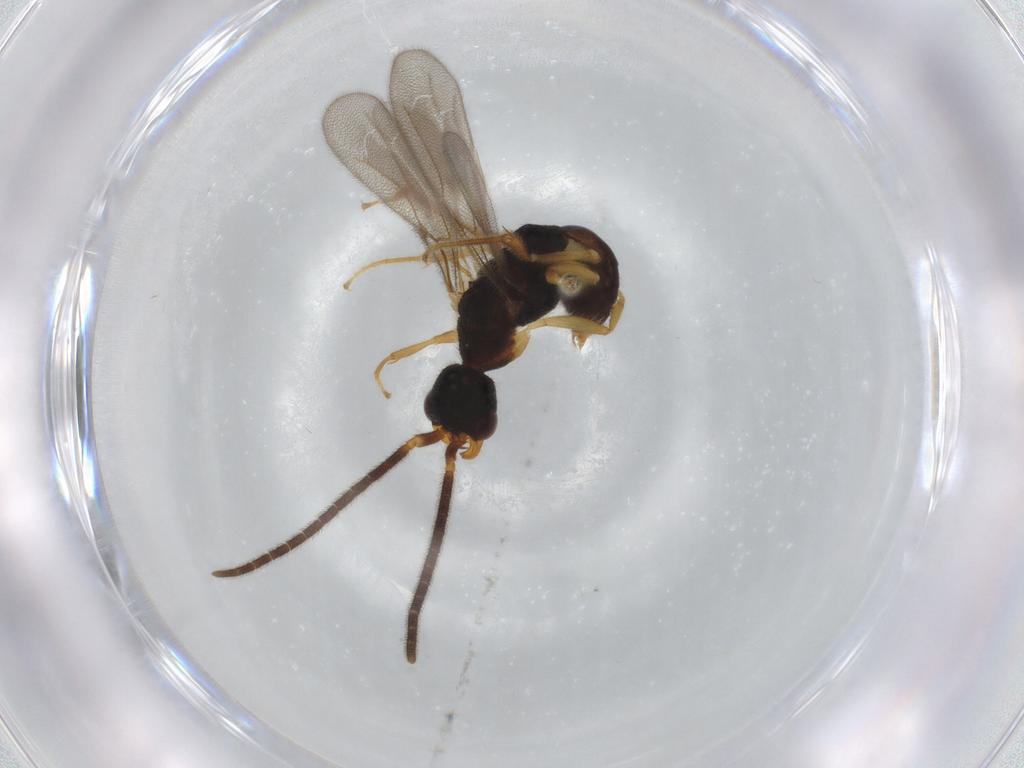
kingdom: Animalia
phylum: Arthropoda
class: Insecta
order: Hymenoptera
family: Bethylidae
